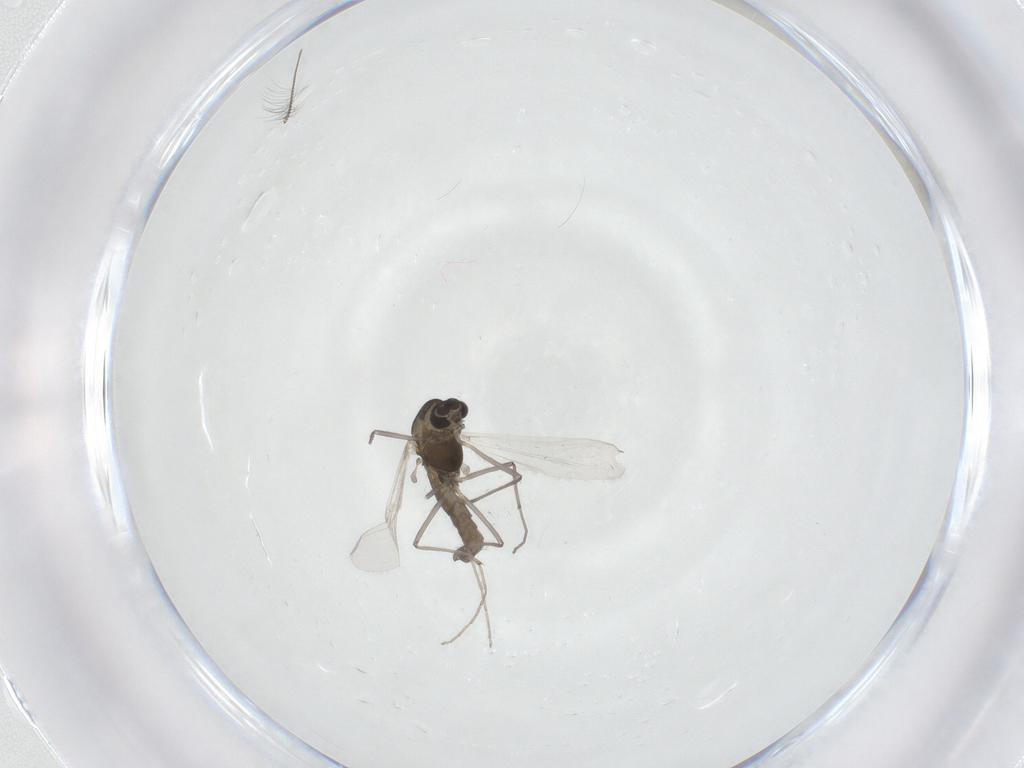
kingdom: Animalia
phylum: Arthropoda
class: Insecta
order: Diptera
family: Chironomidae
